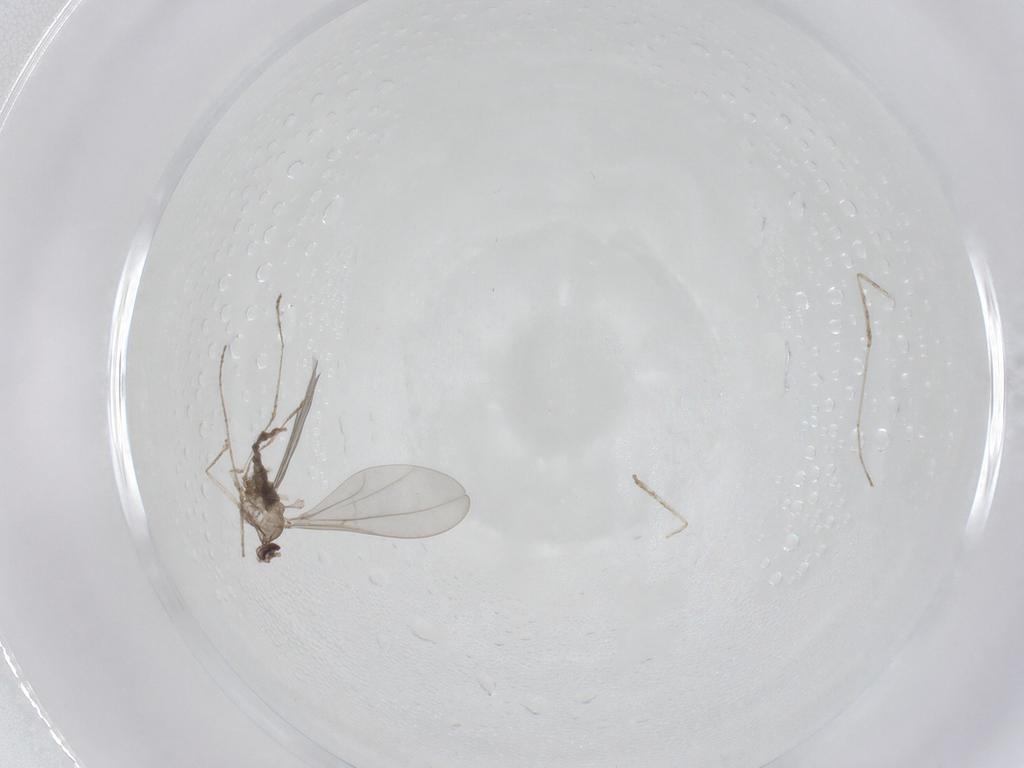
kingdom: Animalia
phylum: Arthropoda
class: Insecta
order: Diptera
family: Cecidomyiidae
